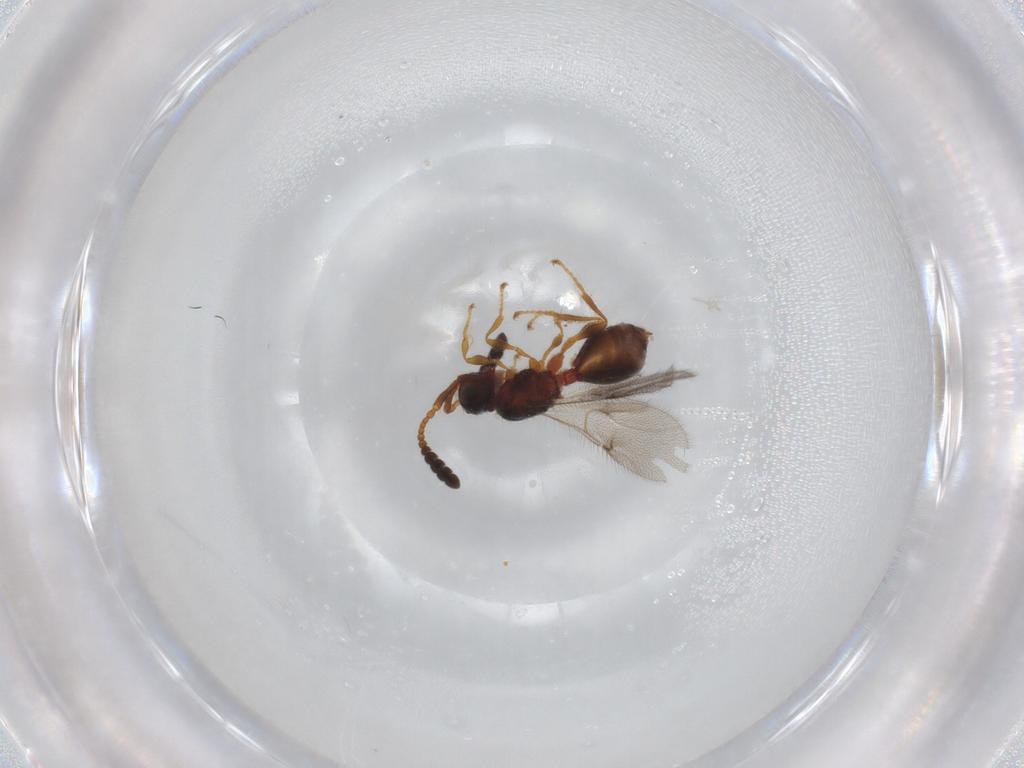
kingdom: Animalia
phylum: Arthropoda
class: Insecta
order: Hymenoptera
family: Diapriidae
